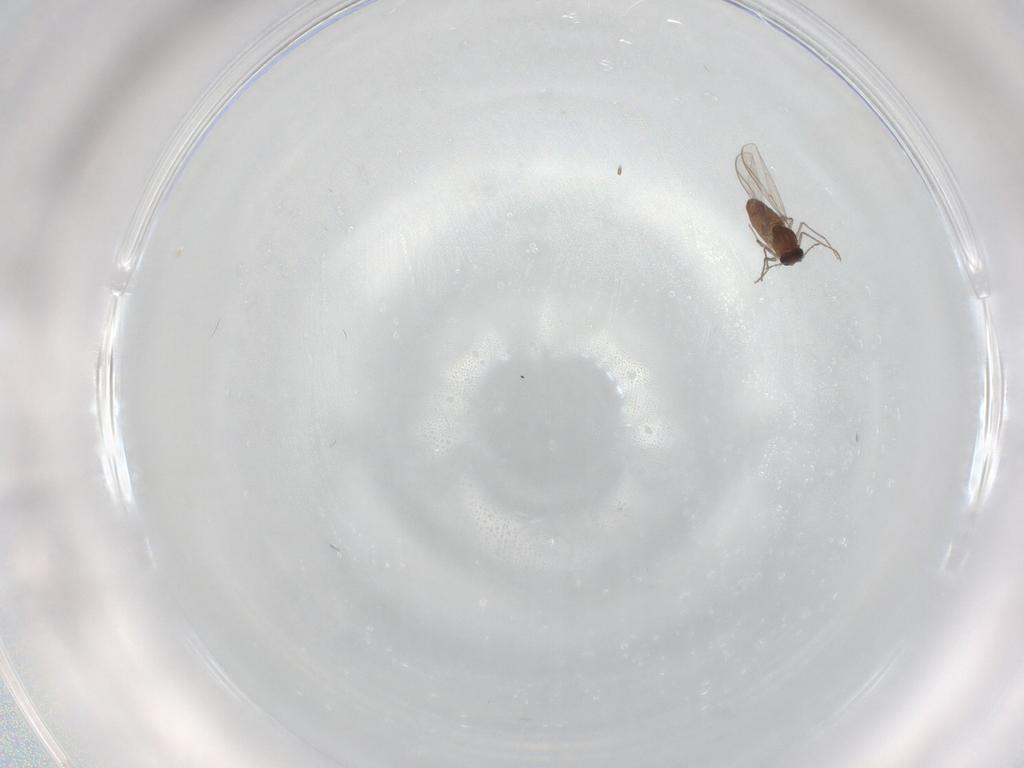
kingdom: Animalia
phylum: Arthropoda
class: Insecta
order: Diptera
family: Chironomidae
